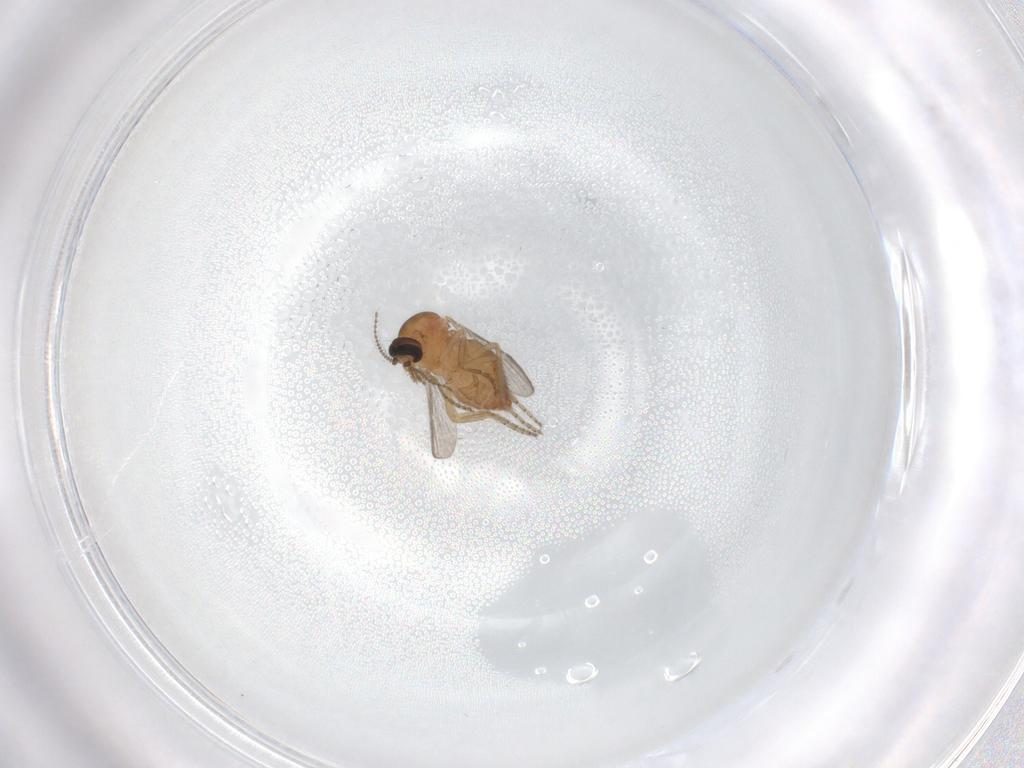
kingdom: Animalia
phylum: Arthropoda
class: Insecta
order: Diptera
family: Ceratopogonidae
